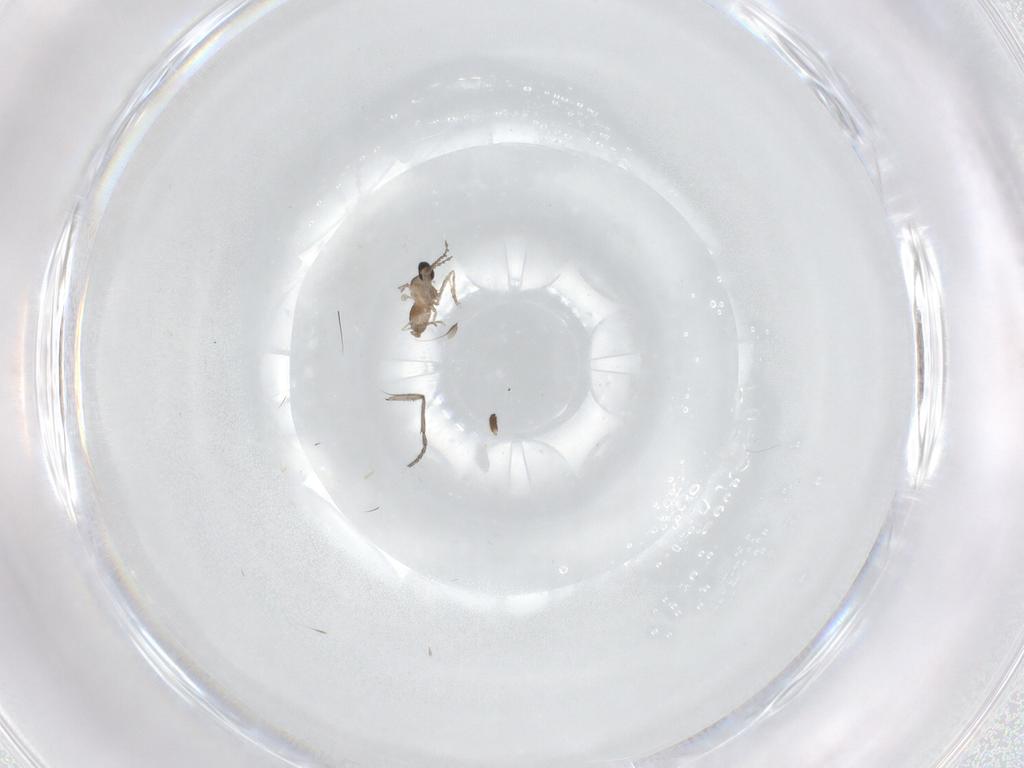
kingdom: Animalia
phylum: Arthropoda
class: Insecta
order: Diptera
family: Cecidomyiidae
